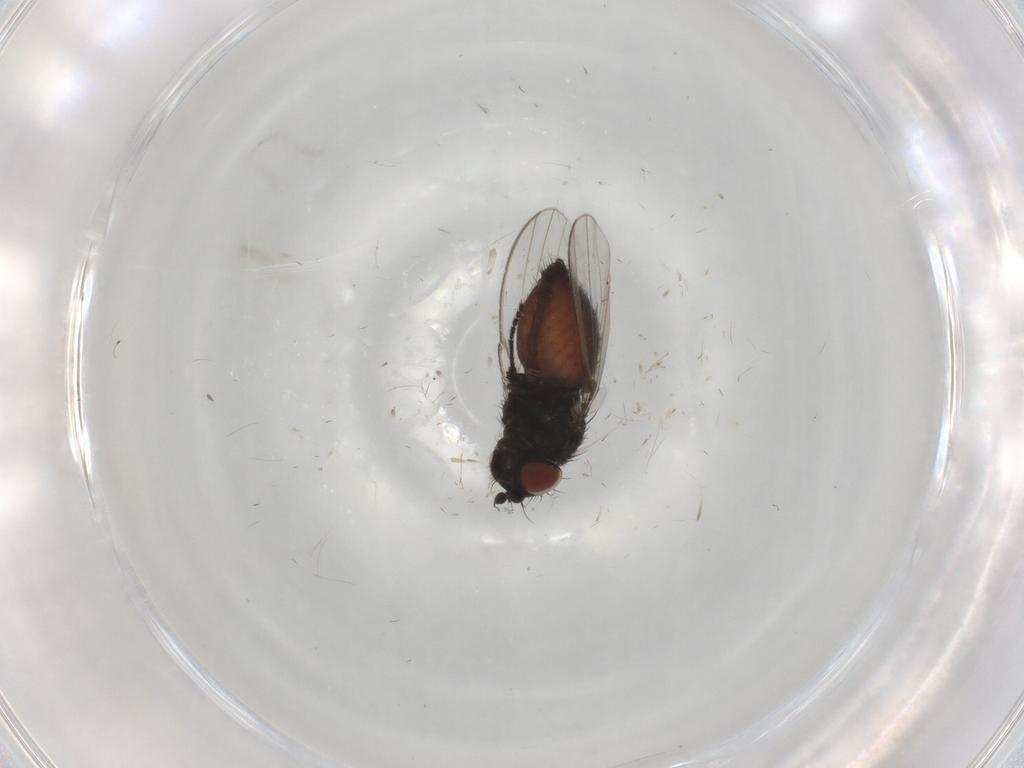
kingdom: Animalia
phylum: Arthropoda
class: Insecta
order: Diptera
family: Milichiidae
